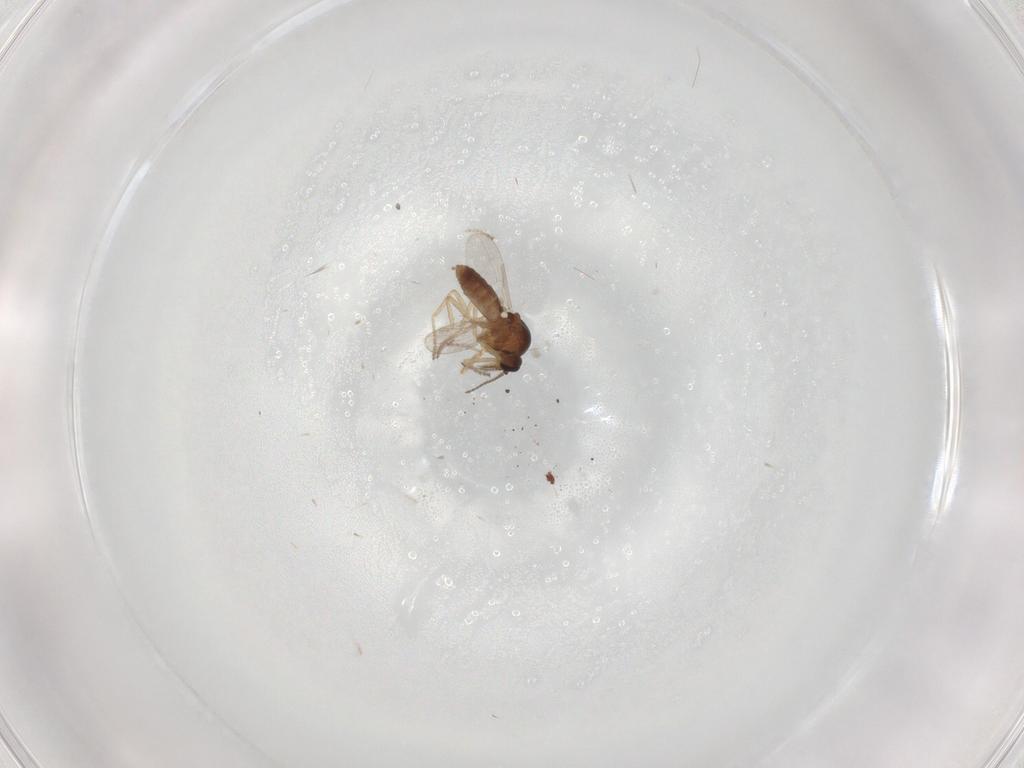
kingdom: Animalia
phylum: Arthropoda
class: Insecta
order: Diptera
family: Ceratopogonidae
